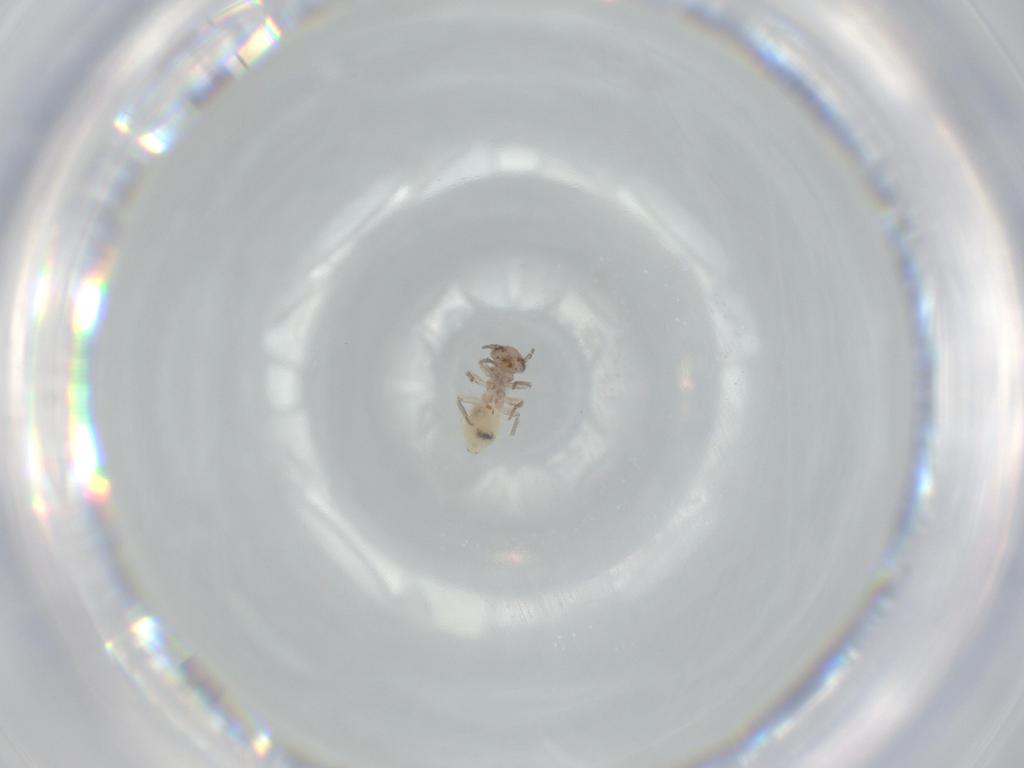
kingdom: Animalia
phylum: Arthropoda
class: Insecta
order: Psocodea
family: Lepidopsocidae
